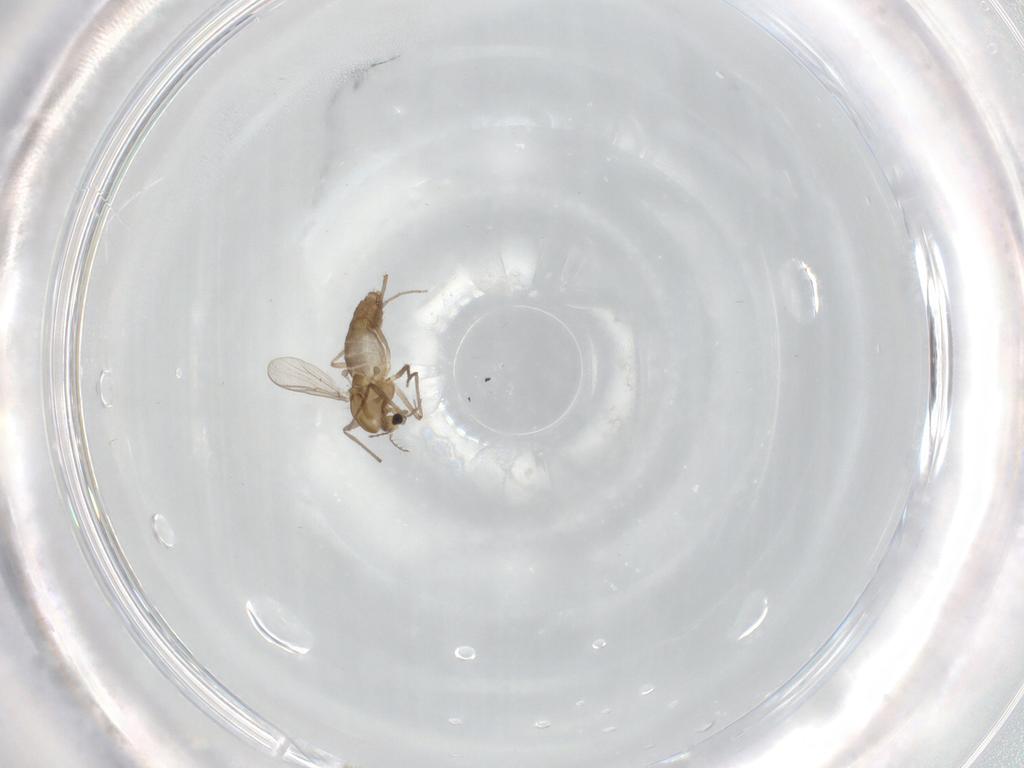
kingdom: Animalia
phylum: Arthropoda
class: Insecta
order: Diptera
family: Chironomidae
